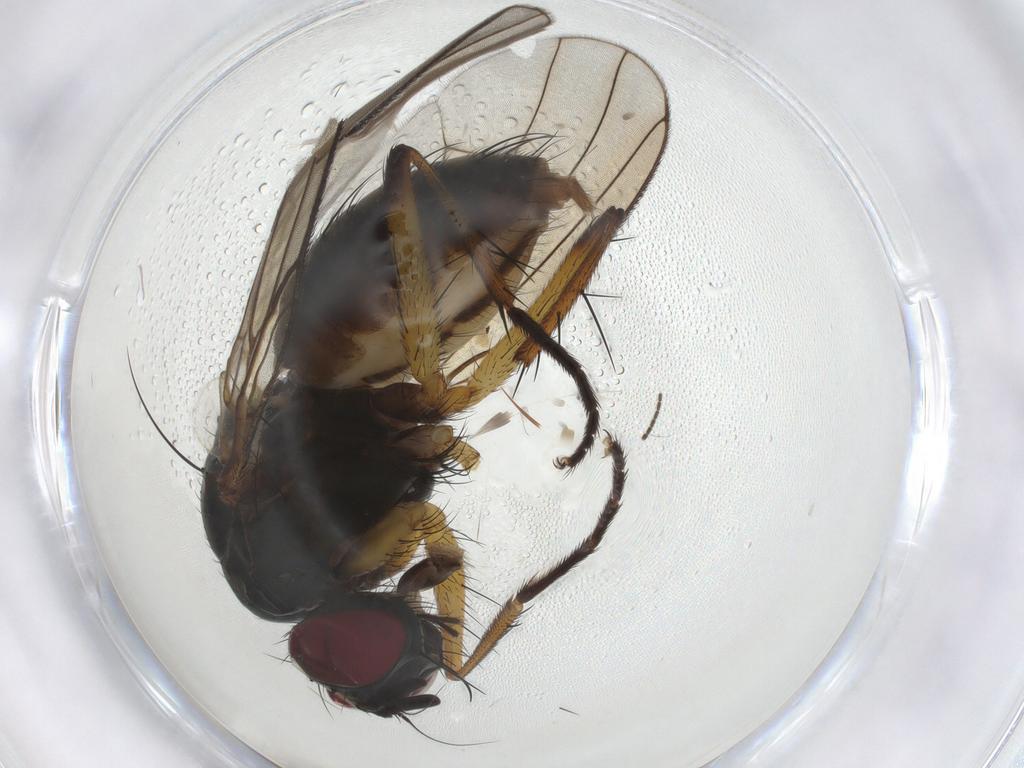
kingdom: Animalia
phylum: Arthropoda
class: Insecta
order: Diptera
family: Muscidae
